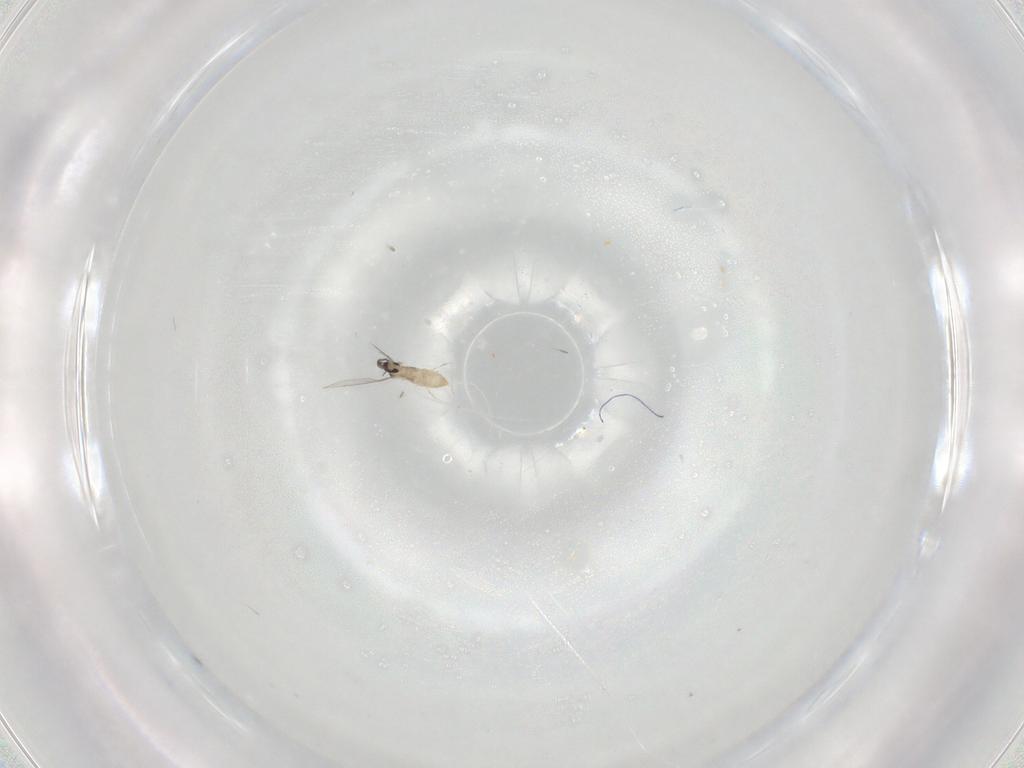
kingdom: Animalia
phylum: Arthropoda
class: Insecta
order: Diptera
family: Cecidomyiidae
